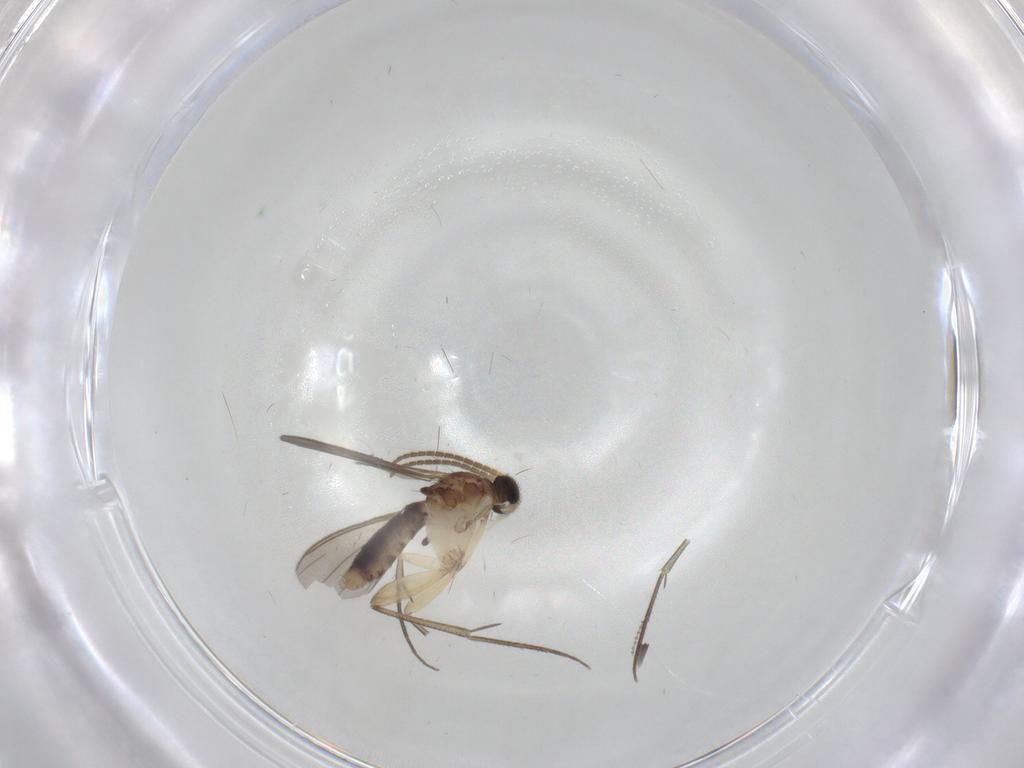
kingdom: Animalia
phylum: Arthropoda
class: Insecta
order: Diptera
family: Mycetophilidae
